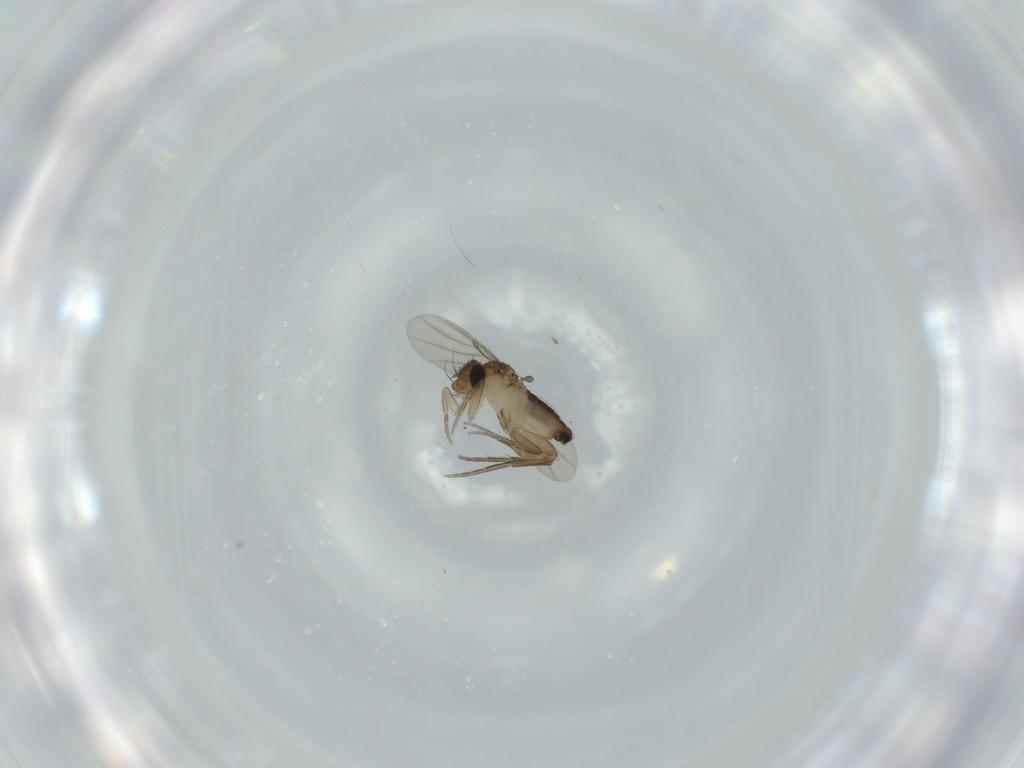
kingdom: Animalia
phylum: Arthropoda
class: Insecta
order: Diptera
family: Phoridae
